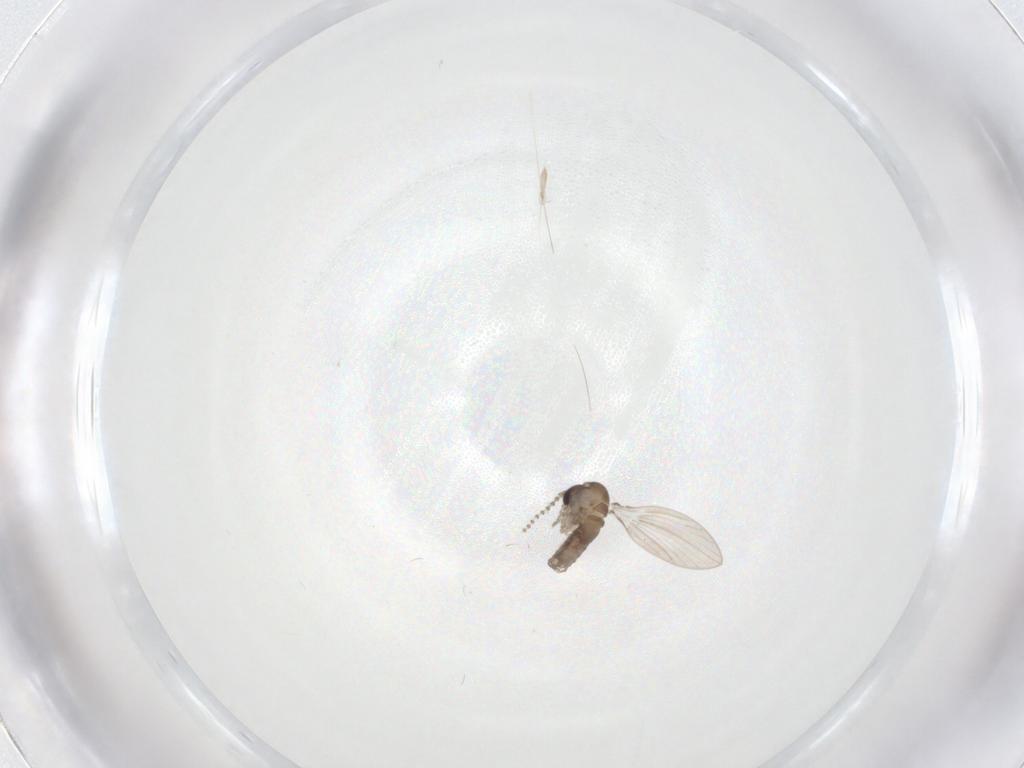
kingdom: Animalia
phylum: Arthropoda
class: Insecta
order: Diptera
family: Psychodidae
